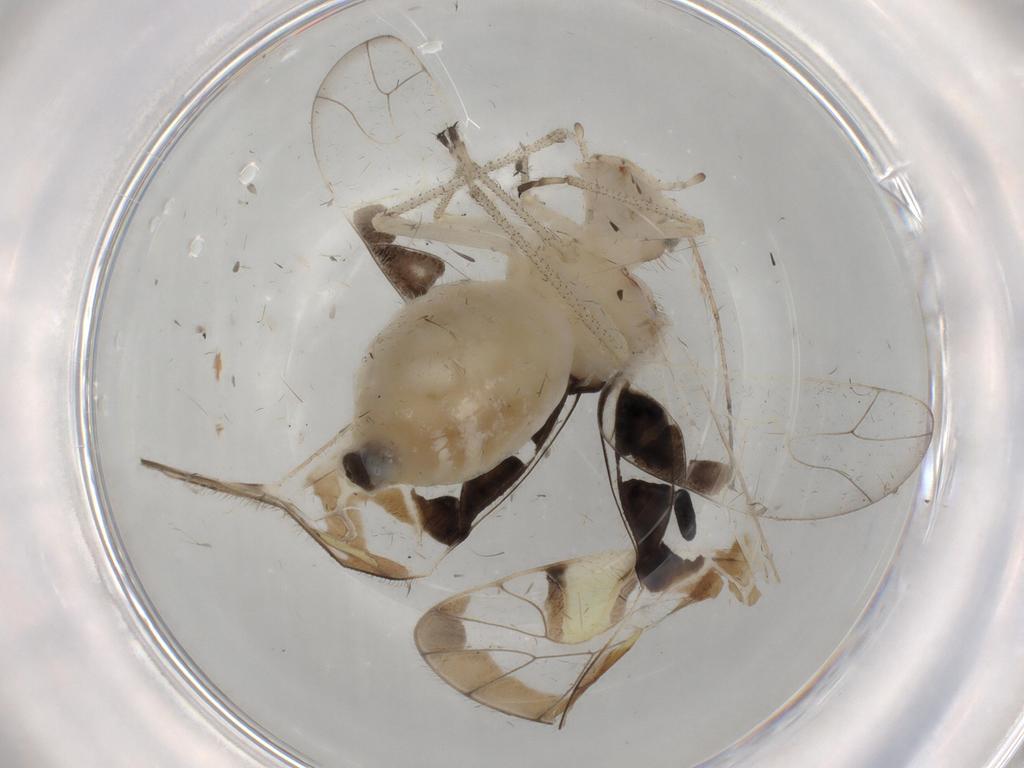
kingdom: Animalia
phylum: Arthropoda
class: Insecta
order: Psocodea
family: Amphipsocidae
